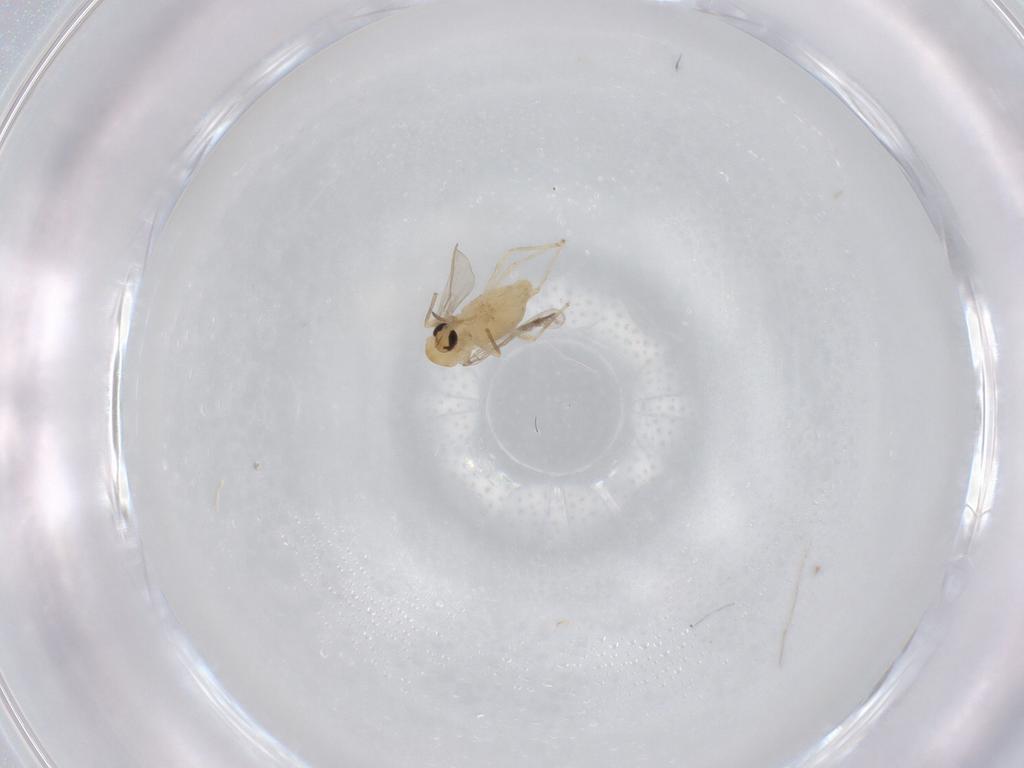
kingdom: Animalia
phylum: Arthropoda
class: Insecta
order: Diptera
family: Chironomidae
